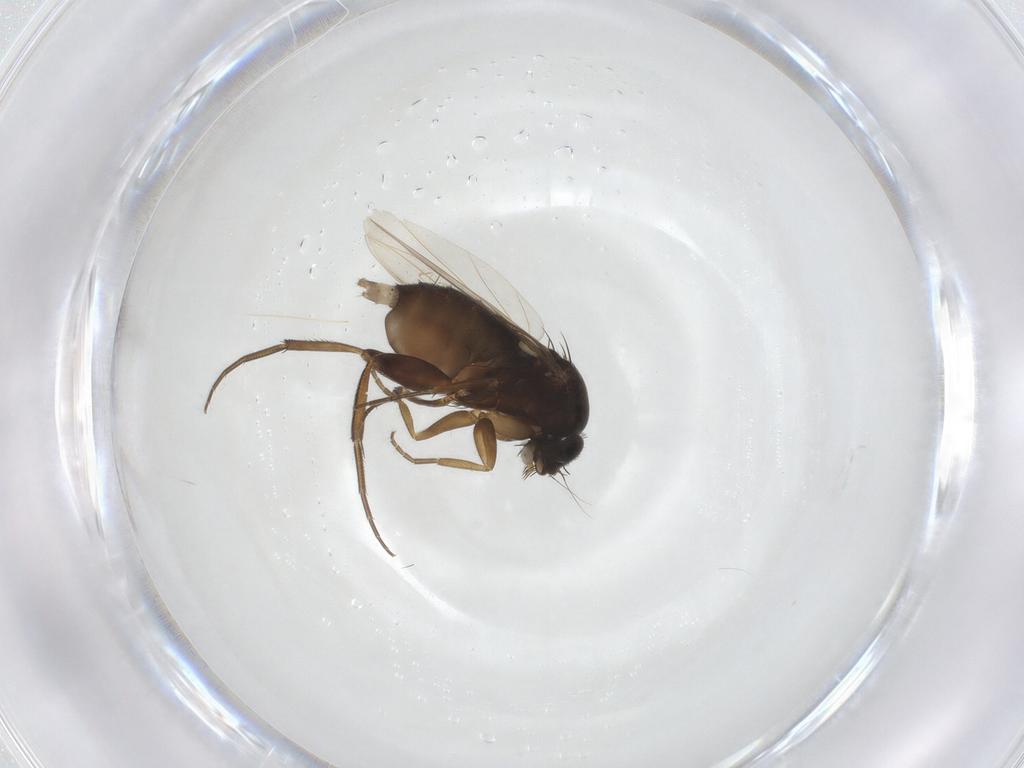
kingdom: Animalia
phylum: Arthropoda
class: Insecta
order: Diptera
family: Phoridae
